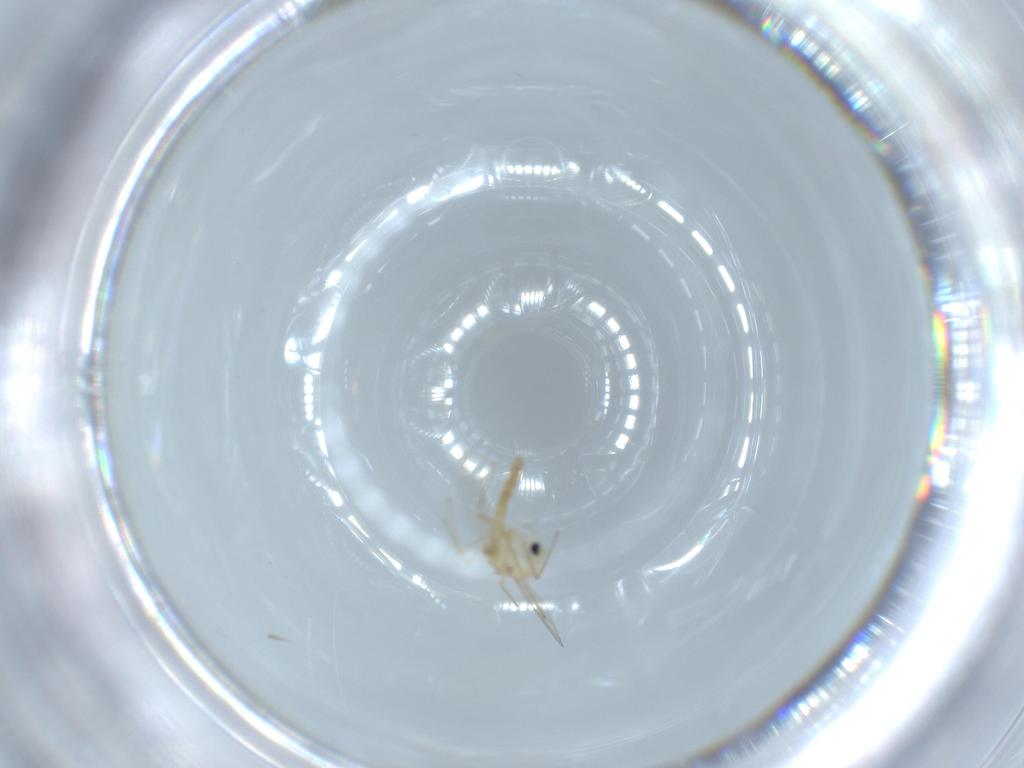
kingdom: Animalia
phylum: Arthropoda
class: Insecta
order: Diptera
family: Chironomidae
